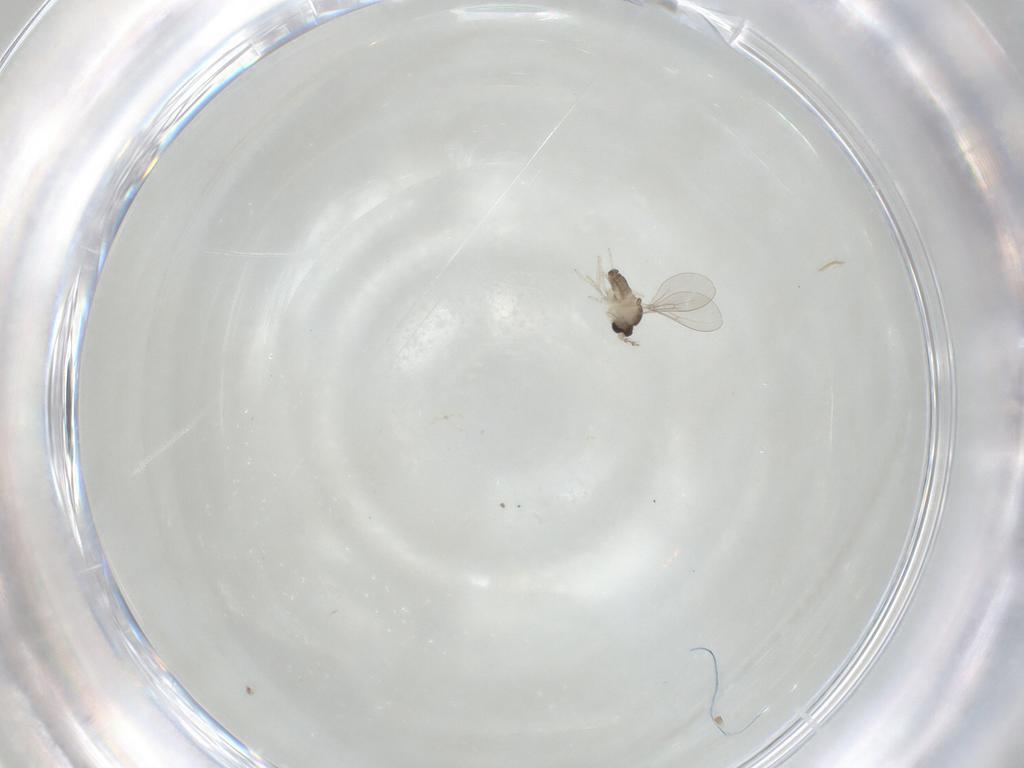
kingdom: Animalia
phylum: Arthropoda
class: Insecta
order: Diptera
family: Cecidomyiidae
